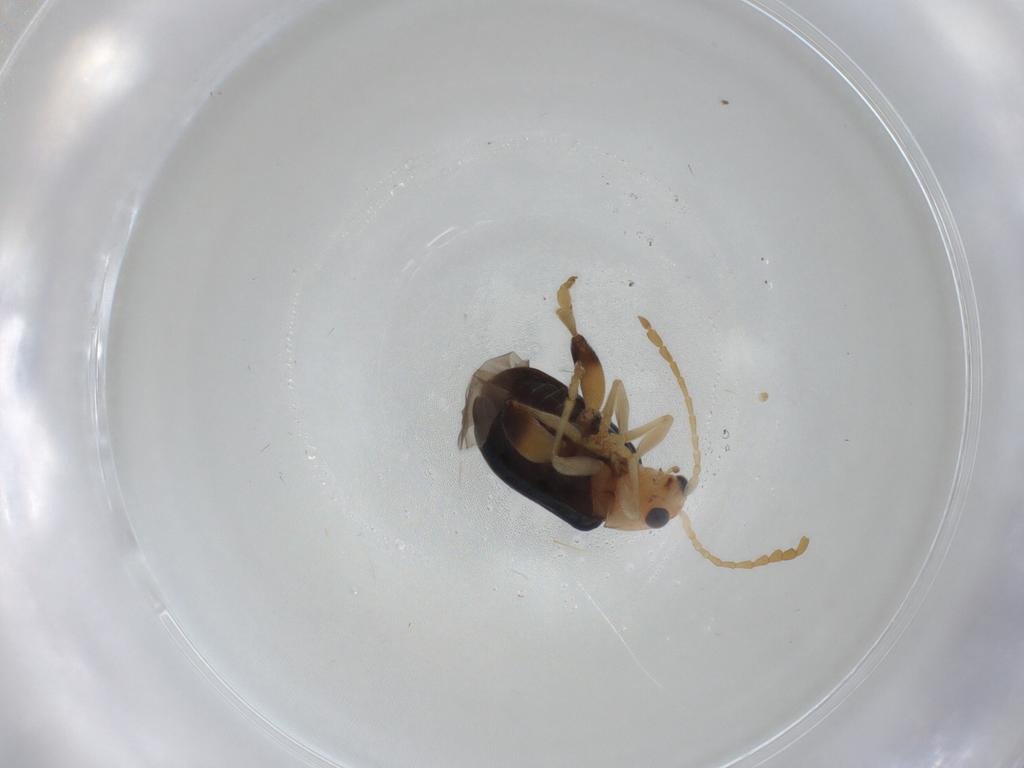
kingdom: Animalia
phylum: Arthropoda
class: Insecta
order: Coleoptera
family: Chrysomelidae
